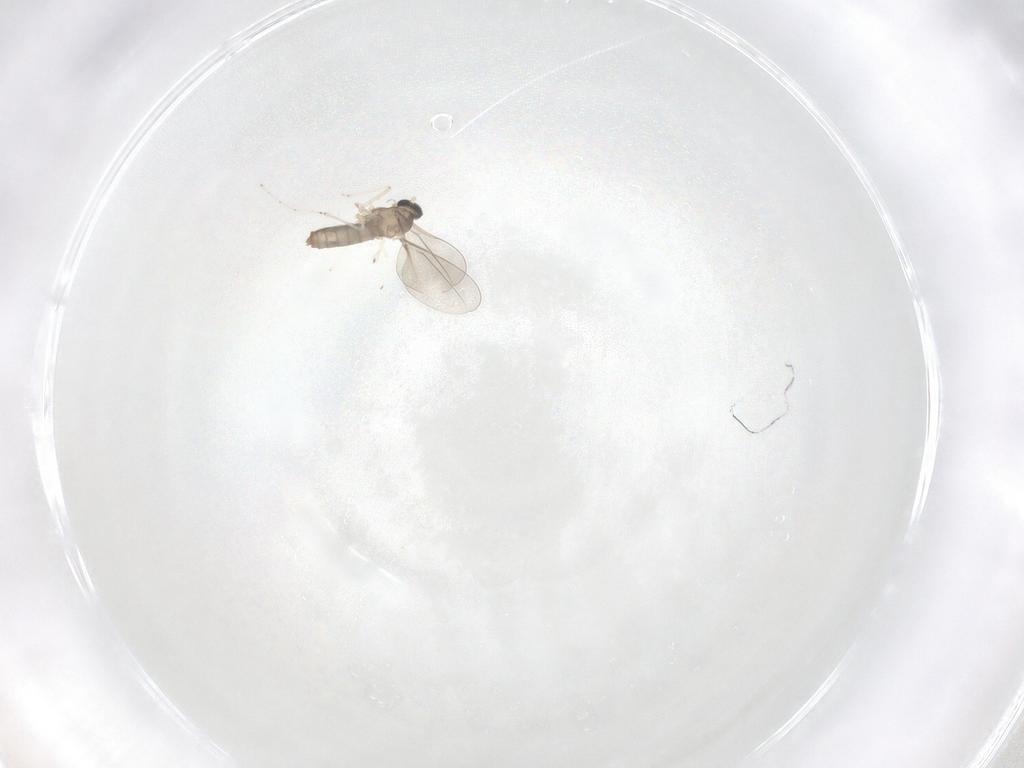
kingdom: Animalia
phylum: Arthropoda
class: Insecta
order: Diptera
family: Cecidomyiidae
